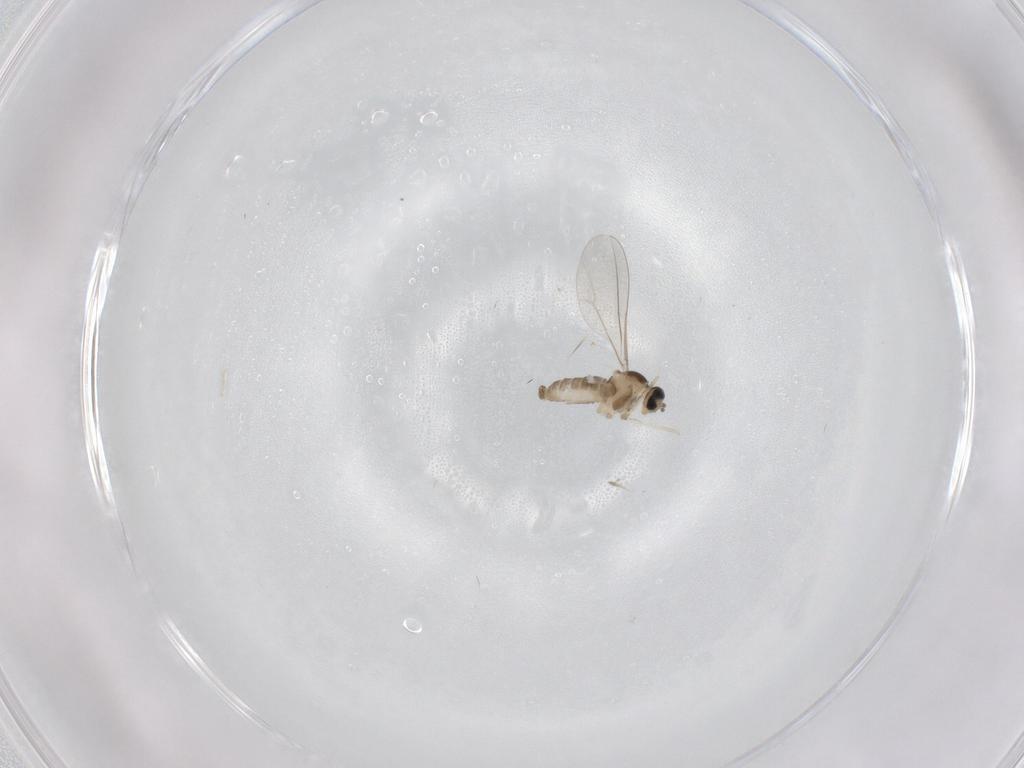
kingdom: Animalia
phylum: Arthropoda
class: Insecta
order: Diptera
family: Cecidomyiidae
